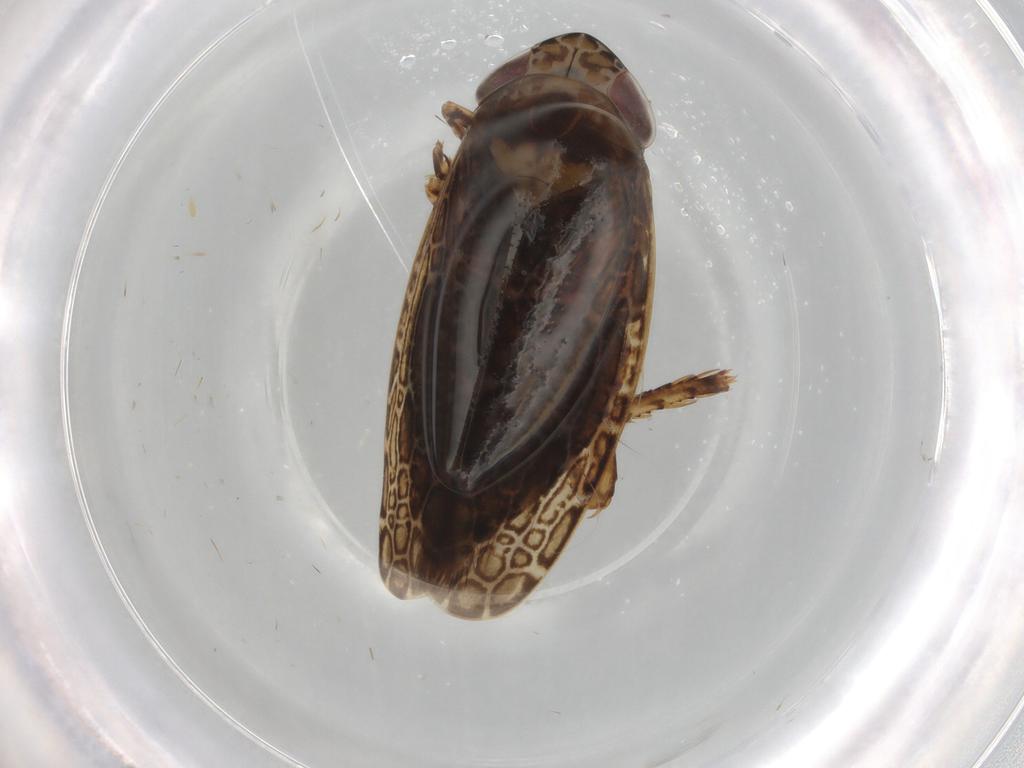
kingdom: Animalia
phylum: Arthropoda
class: Insecta
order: Hemiptera
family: Cicadellidae
